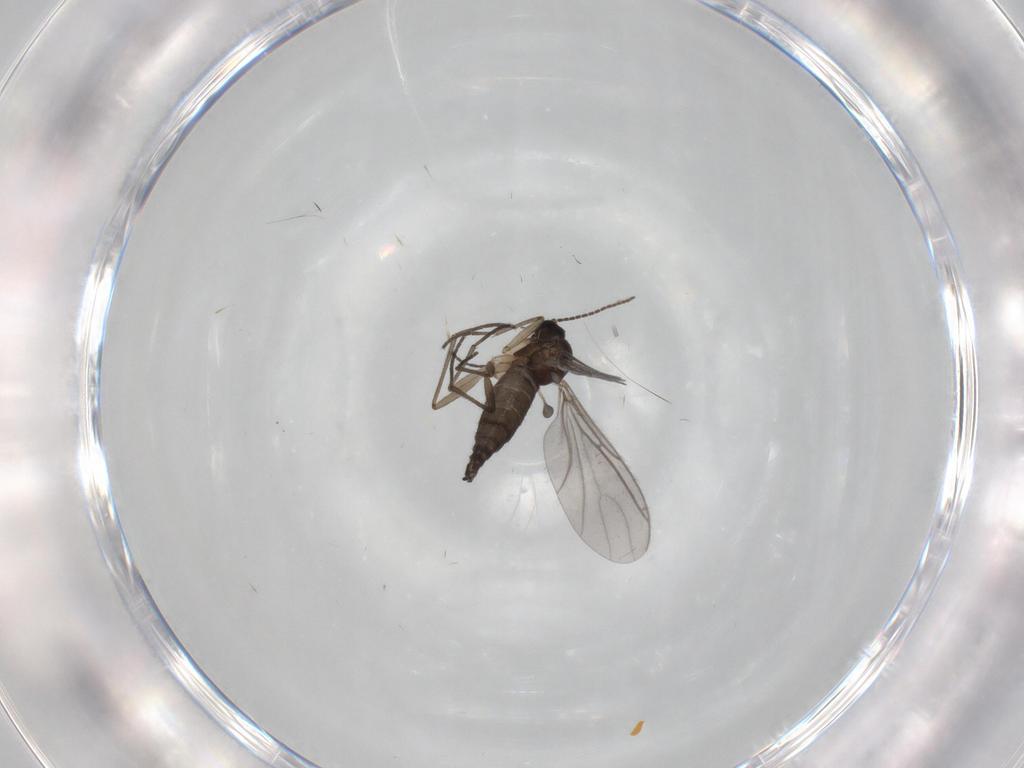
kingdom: Animalia
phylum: Arthropoda
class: Insecta
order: Diptera
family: Sciaridae
